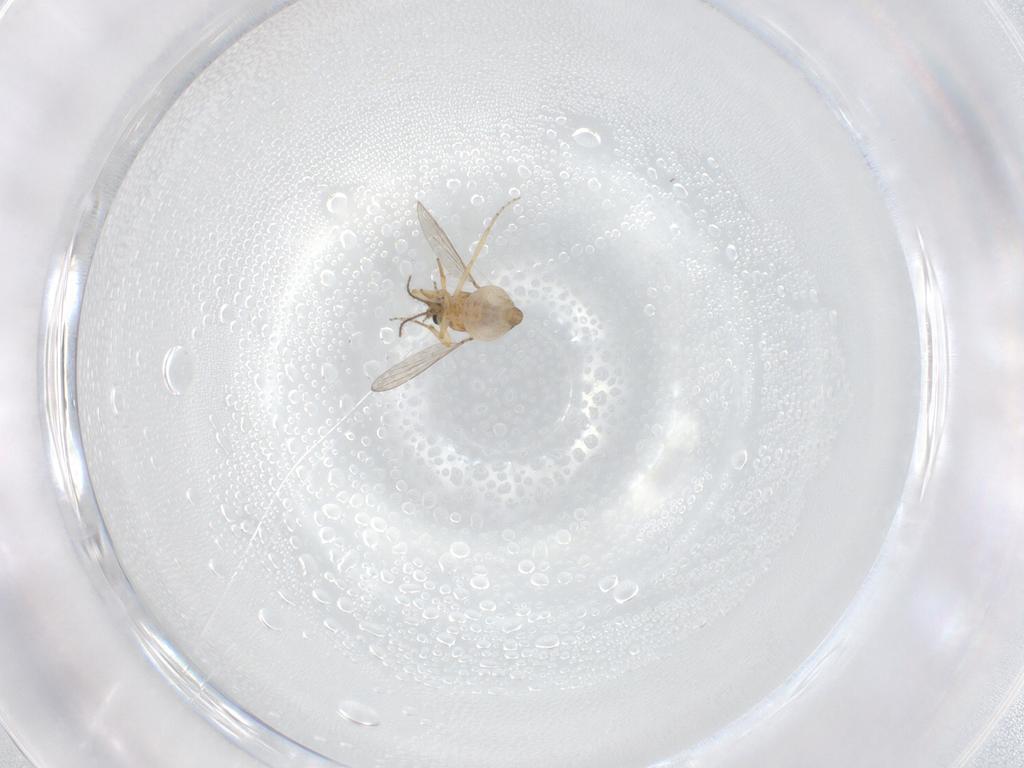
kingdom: Animalia
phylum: Arthropoda
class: Insecta
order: Diptera
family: Ceratopogonidae
